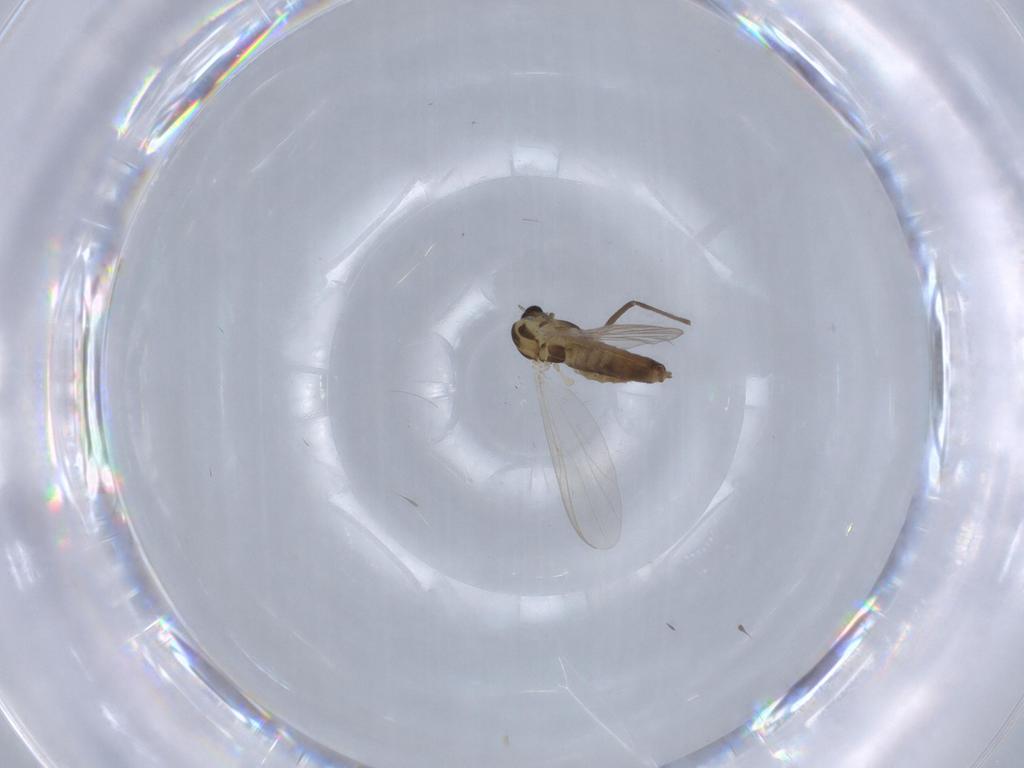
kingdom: Animalia
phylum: Arthropoda
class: Insecta
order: Diptera
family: Chironomidae
